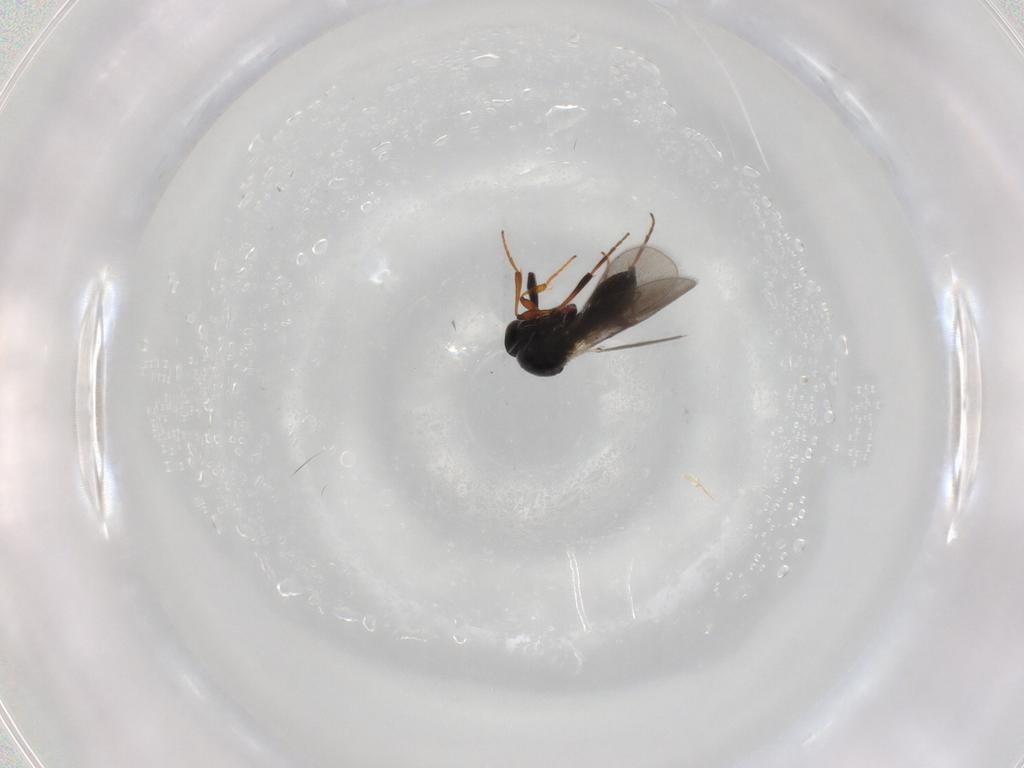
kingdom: Animalia
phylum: Arthropoda
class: Insecta
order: Hymenoptera
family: Platygastridae
